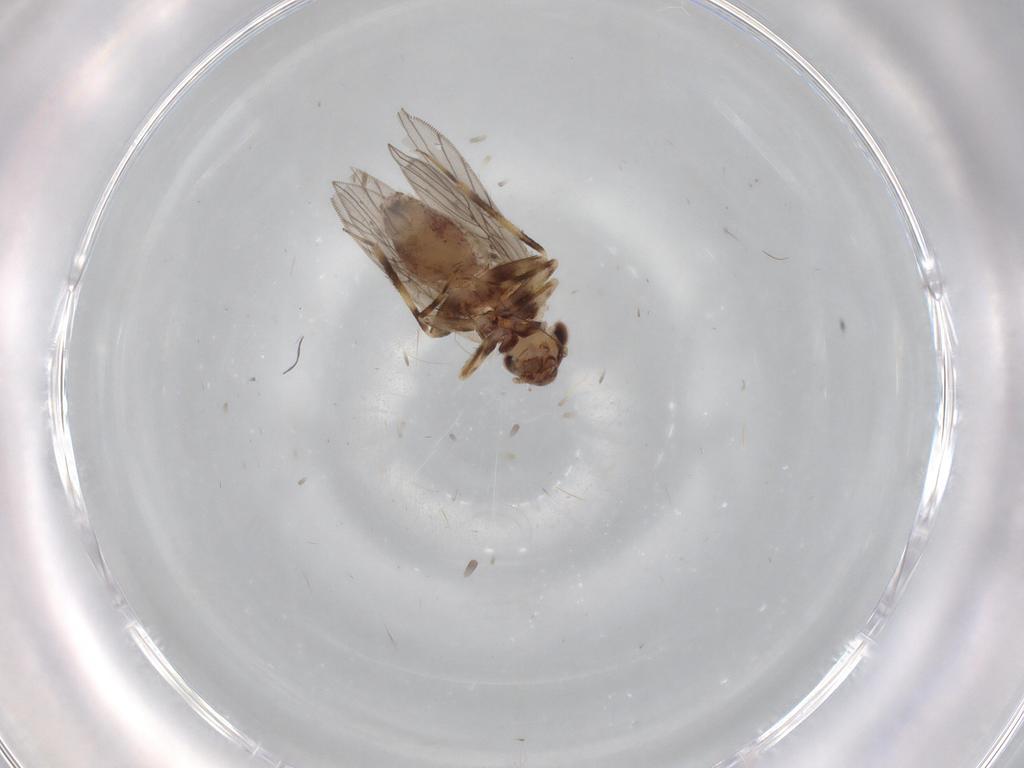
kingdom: Animalia
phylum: Arthropoda
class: Insecta
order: Psocodea
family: Lepidopsocidae
